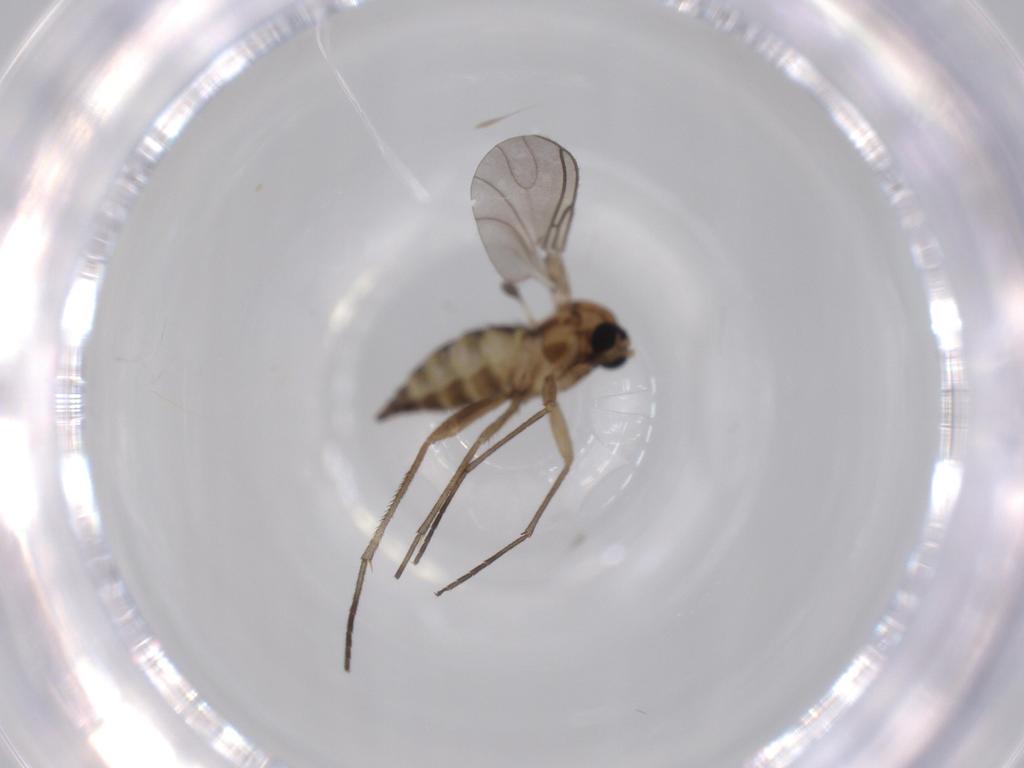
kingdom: Animalia
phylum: Arthropoda
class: Insecta
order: Diptera
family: Sciaridae
